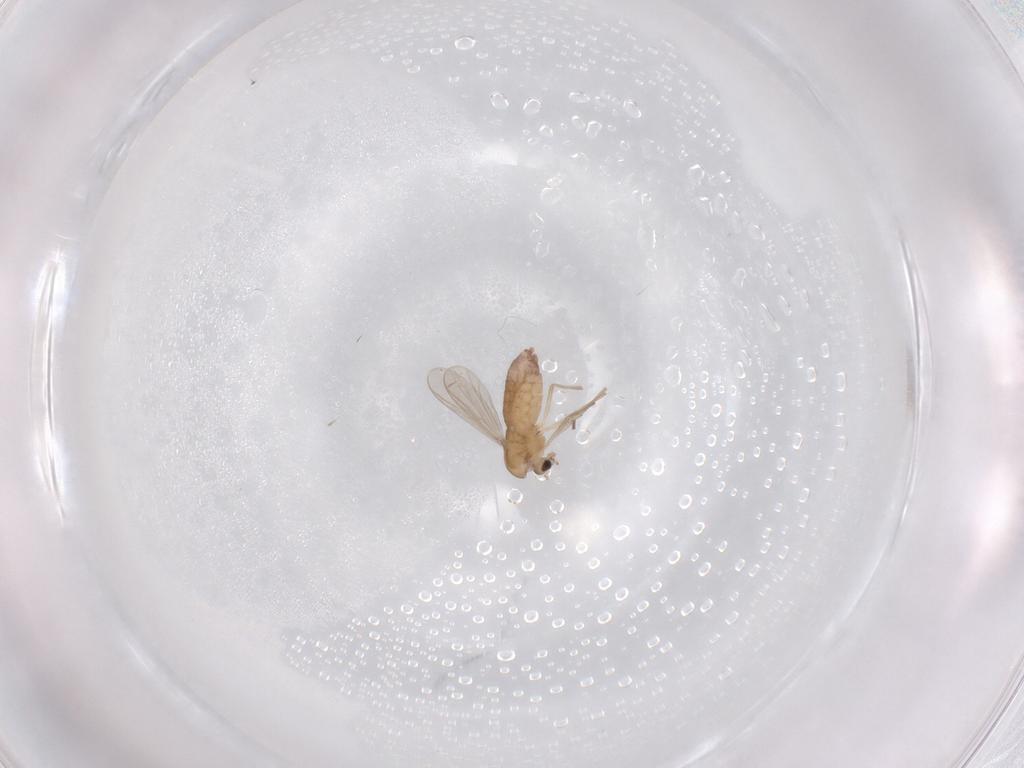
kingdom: Animalia
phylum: Arthropoda
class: Insecta
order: Diptera
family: Chironomidae
